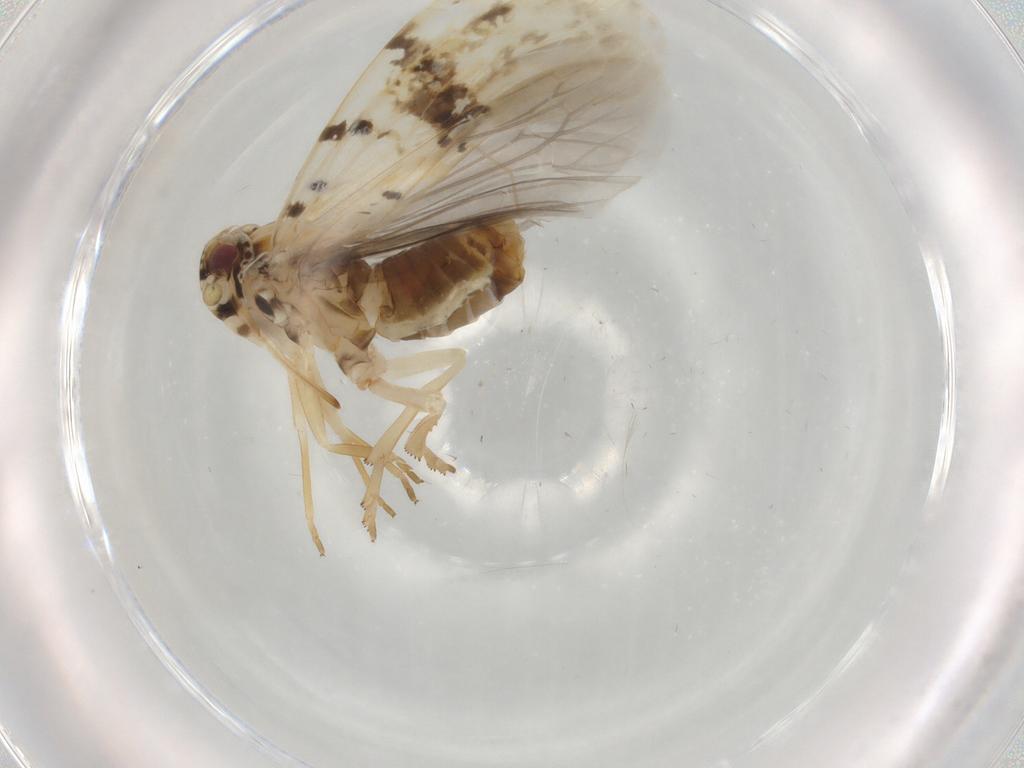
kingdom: Animalia
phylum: Arthropoda
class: Insecta
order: Hemiptera
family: Achilidae
